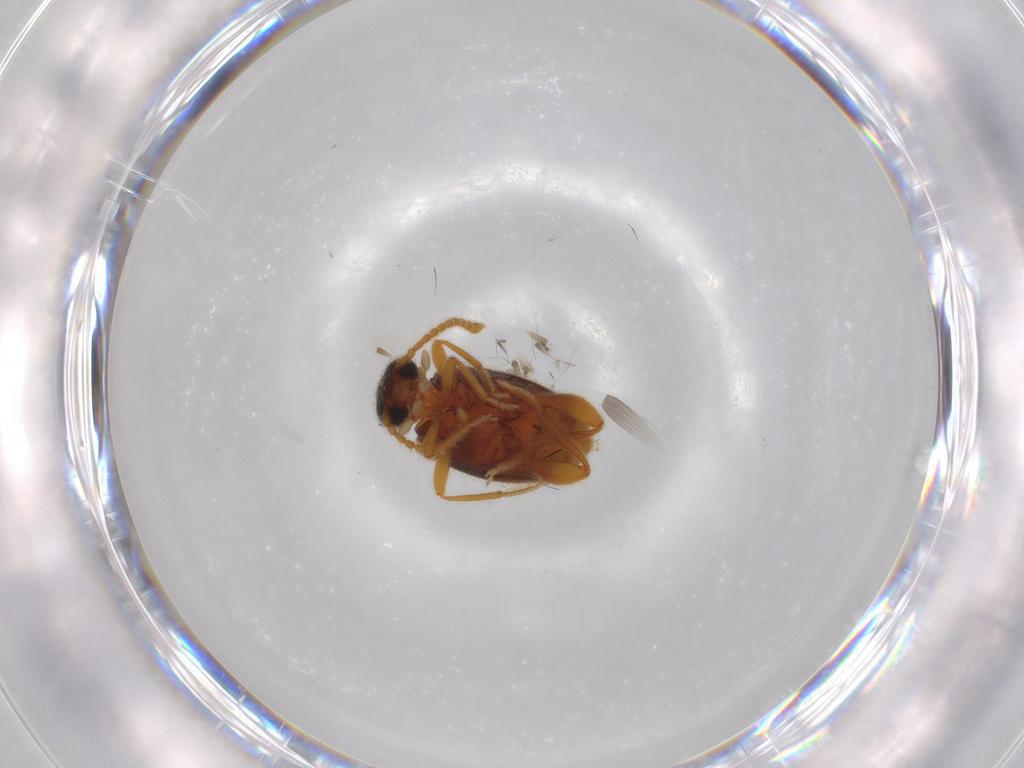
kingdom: Animalia
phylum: Arthropoda
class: Insecta
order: Coleoptera
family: Aderidae
